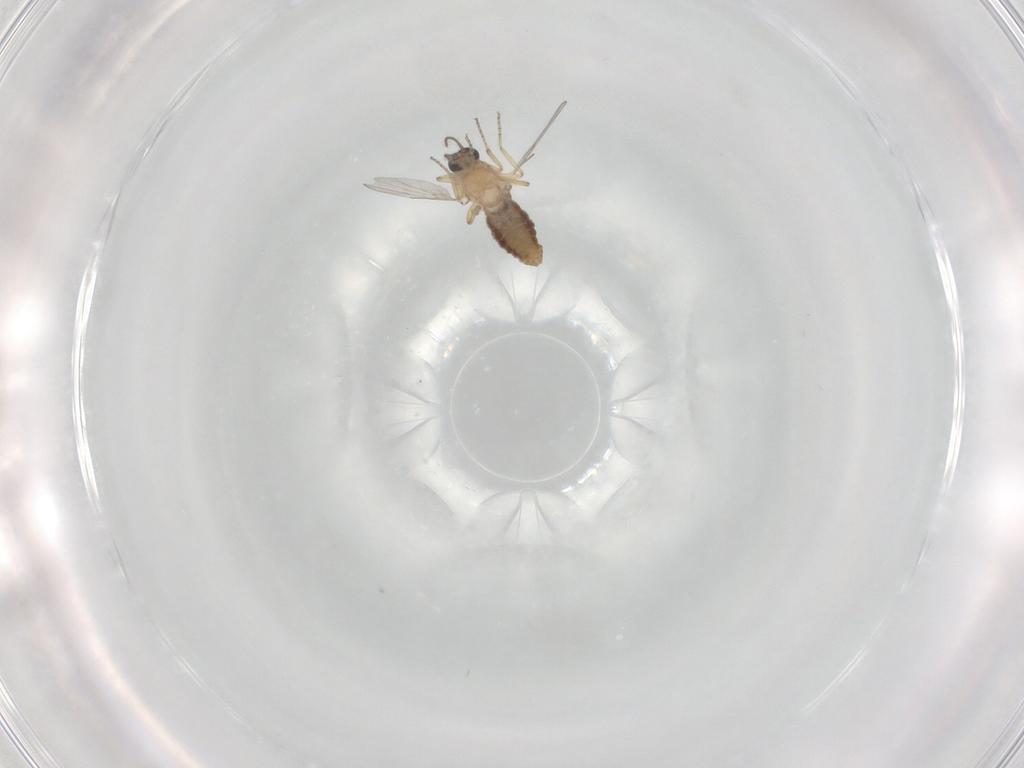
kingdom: Animalia
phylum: Arthropoda
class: Insecta
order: Diptera
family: Ceratopogonidae
